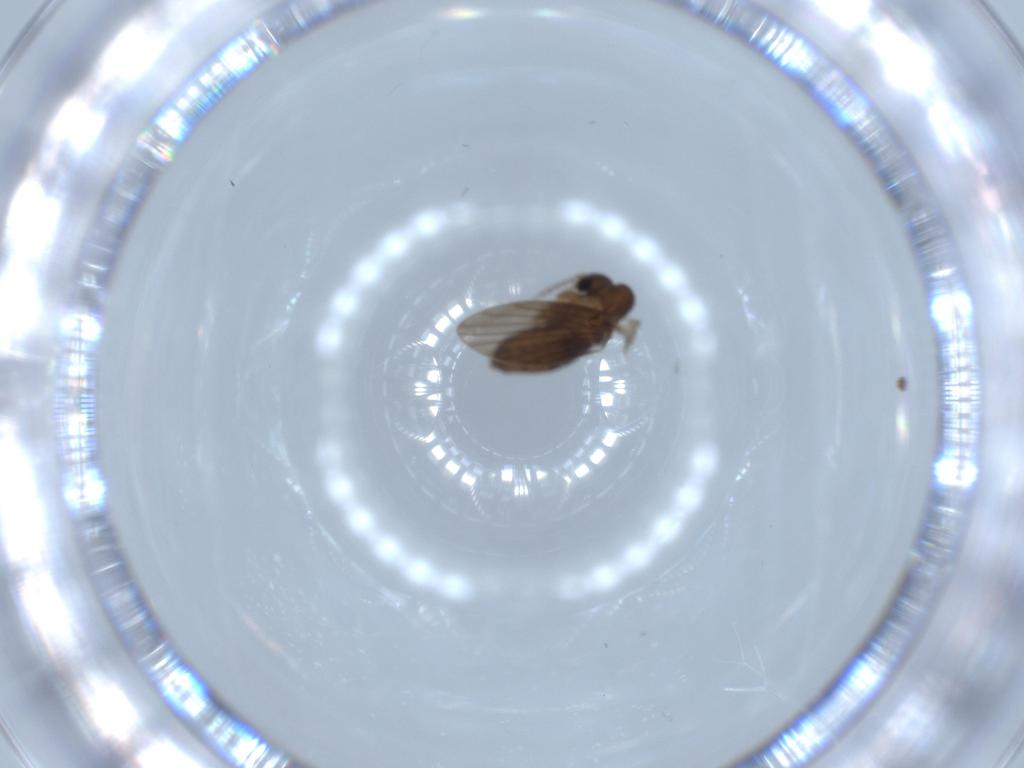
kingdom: Animalia
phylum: Arthropoda
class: Insecta
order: Diptera
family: Psychodidae
